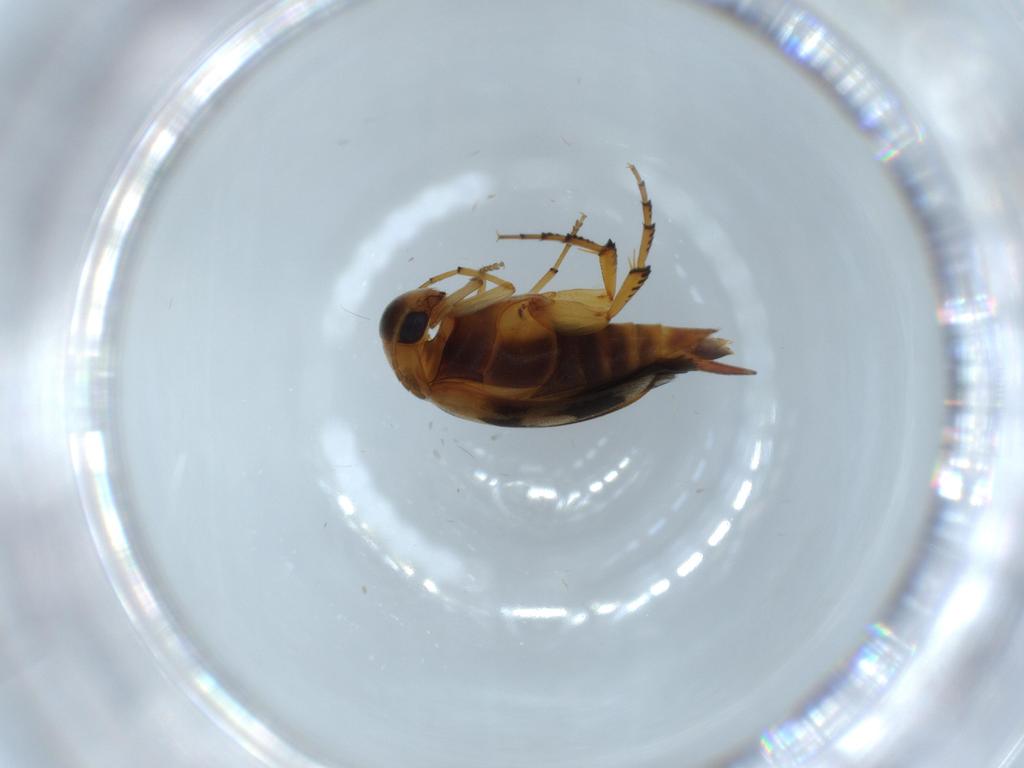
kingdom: Animalia
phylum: Arthropoda
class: Insecta
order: Coleoptera
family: Mordellidae
